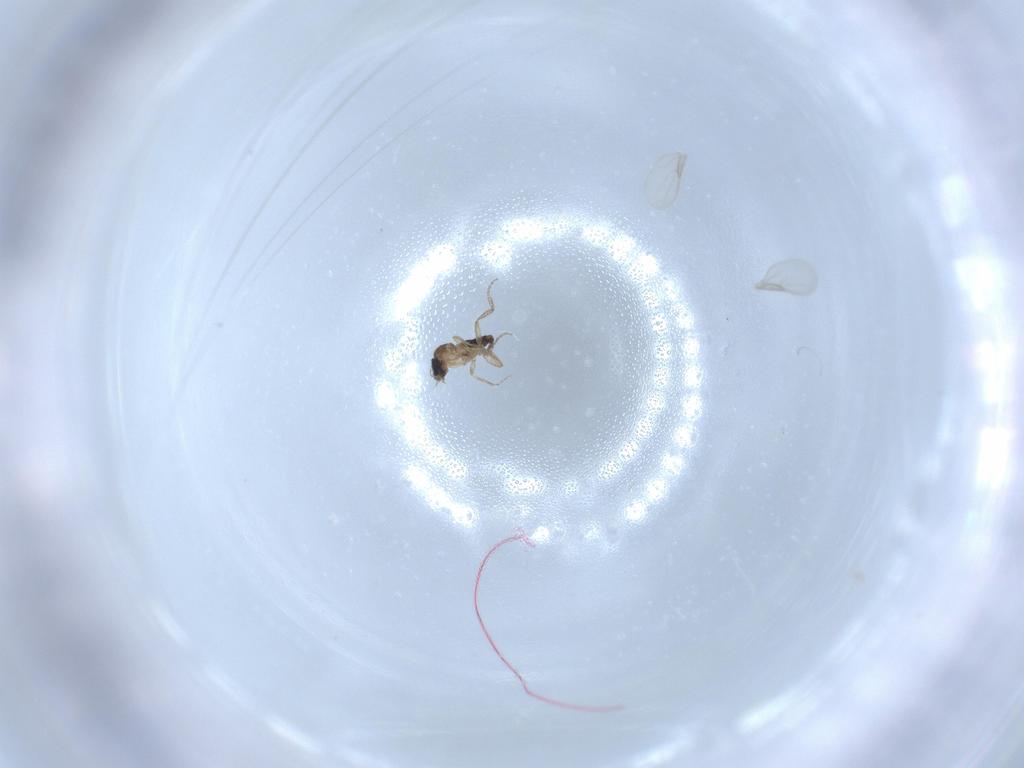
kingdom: Animalia
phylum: Arthropoda
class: Insecta
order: Diptera
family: Phoridae
